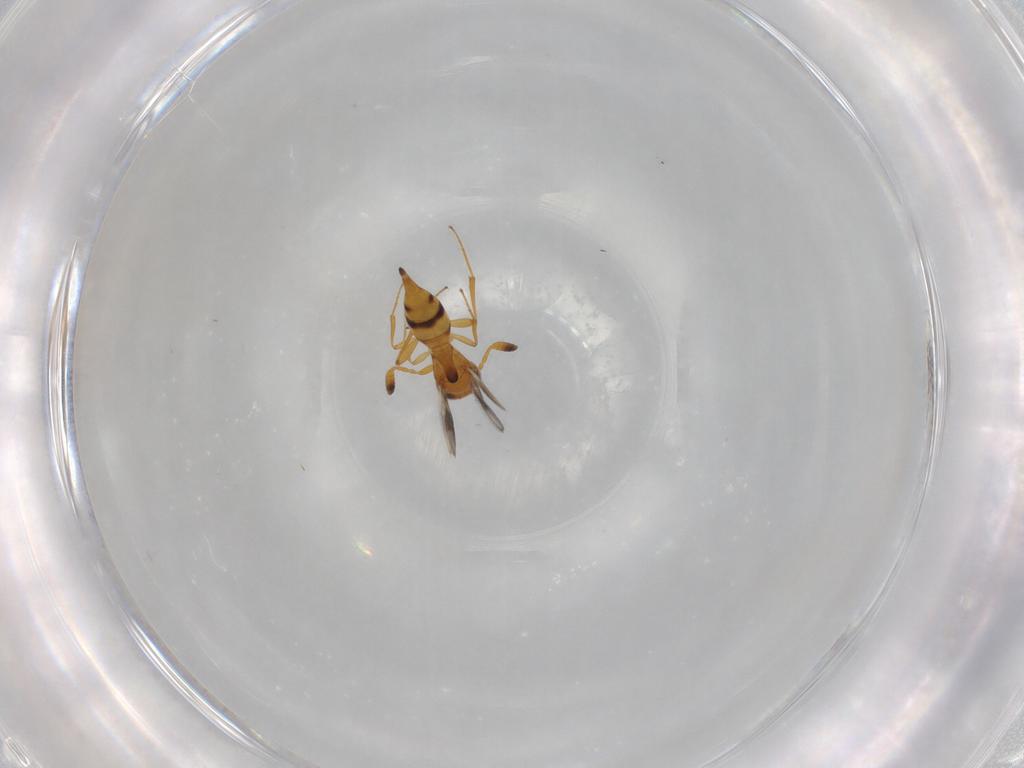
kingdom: Animalia
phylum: Arthropoda
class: Insecta
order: Hymenoptera
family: Scelionidae
